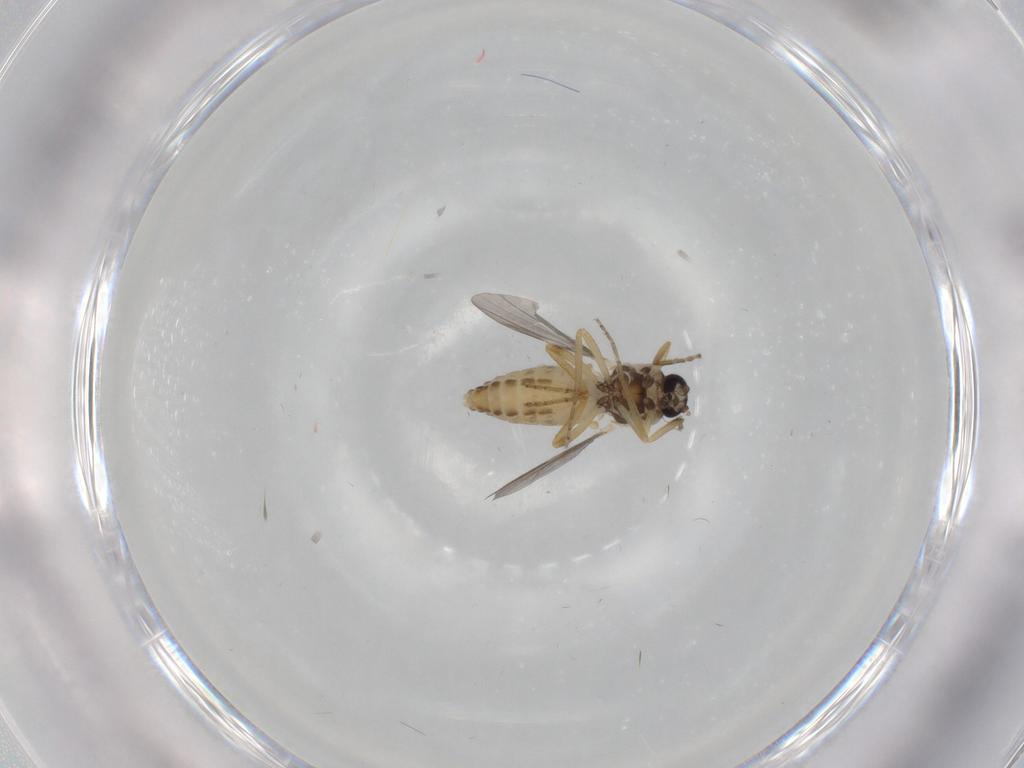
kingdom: Animalia
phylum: Arthropoda
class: Insecta
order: Diptera
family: Ceratopogonidae
